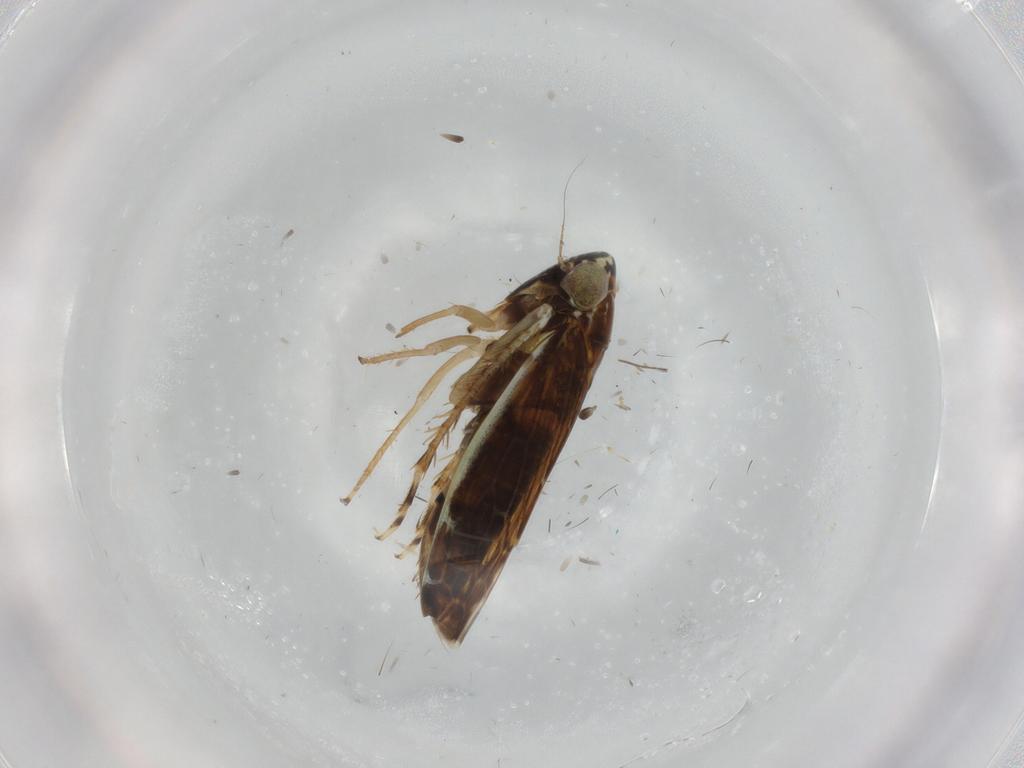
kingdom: Animalia
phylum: Arthropoda
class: Insecta
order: Hemiptera
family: Cicadellidae
